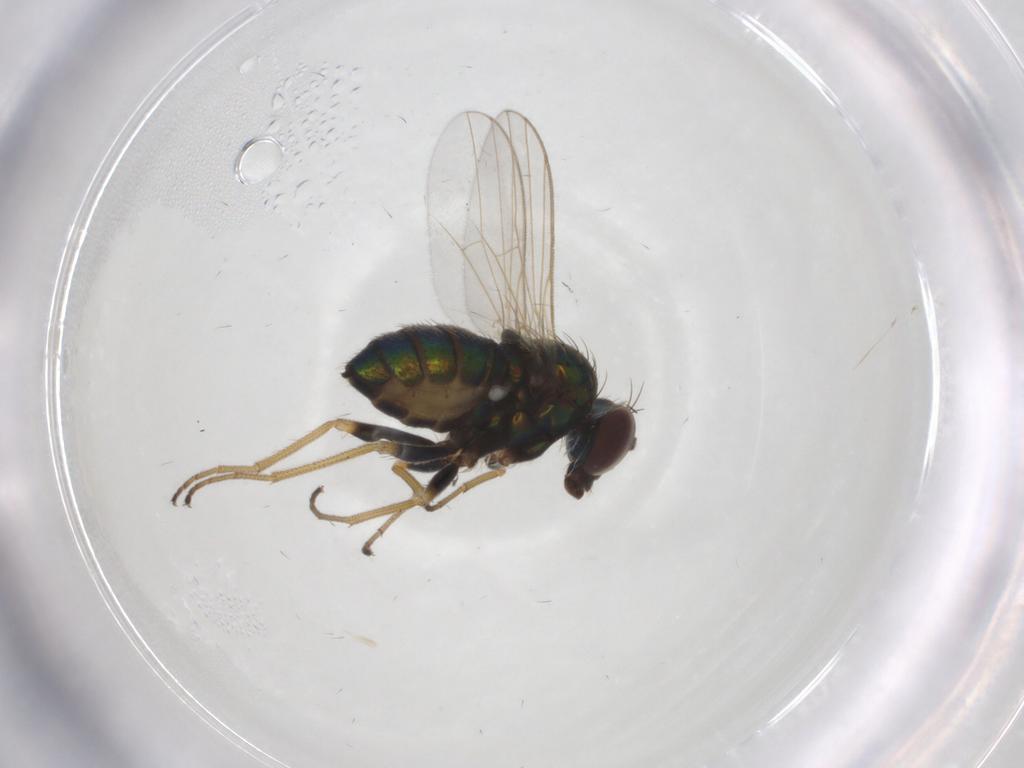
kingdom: Animalia
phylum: Arthropoda
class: Insecta
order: Diptera
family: Dolichopodidae
